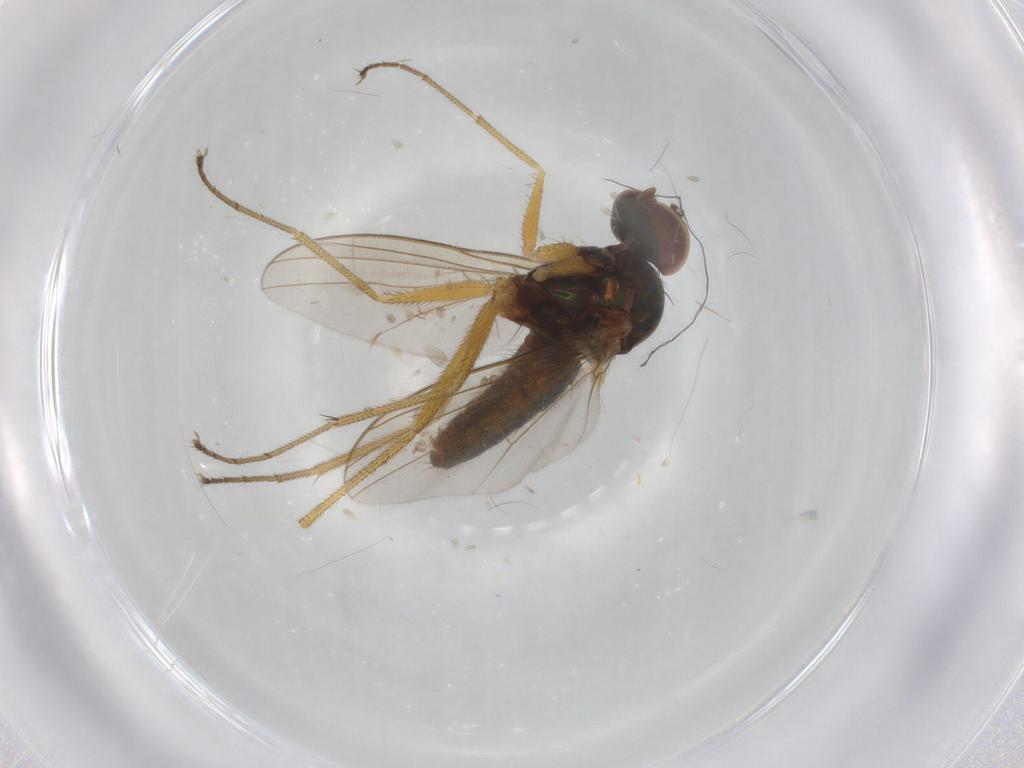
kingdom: Animalia
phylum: Arthropoda
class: Insecta
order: Diptera
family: Dolichopodidae
